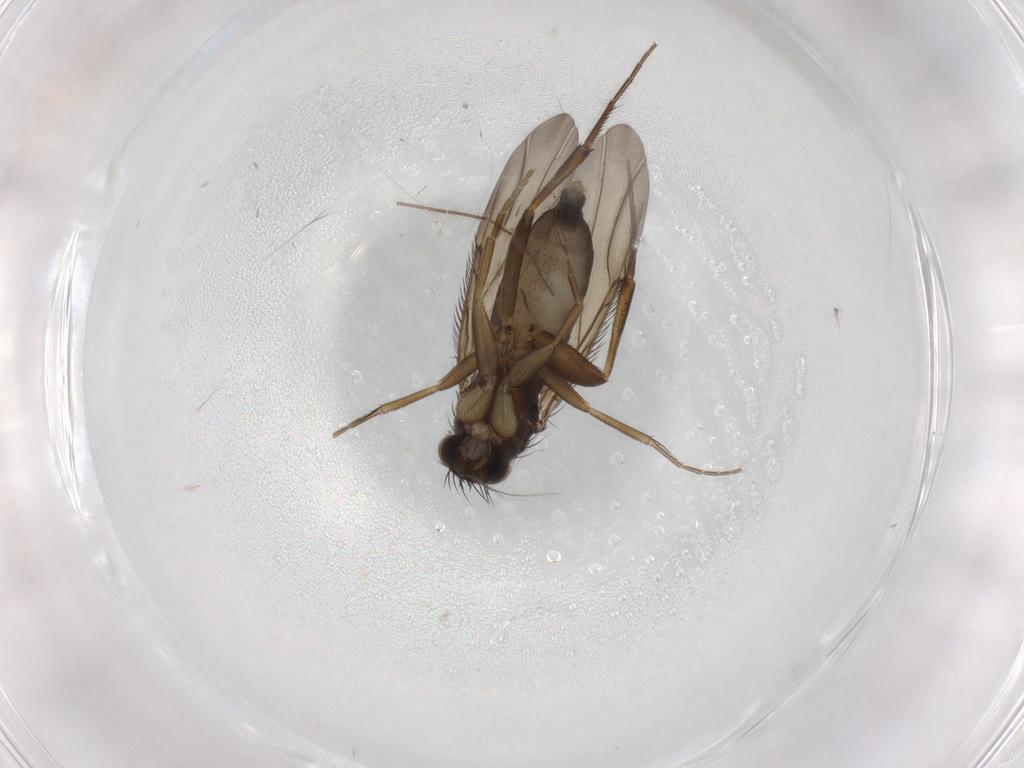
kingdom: Animalia
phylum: Arthropoda
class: Insecta
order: Diptera
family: Phoridae
